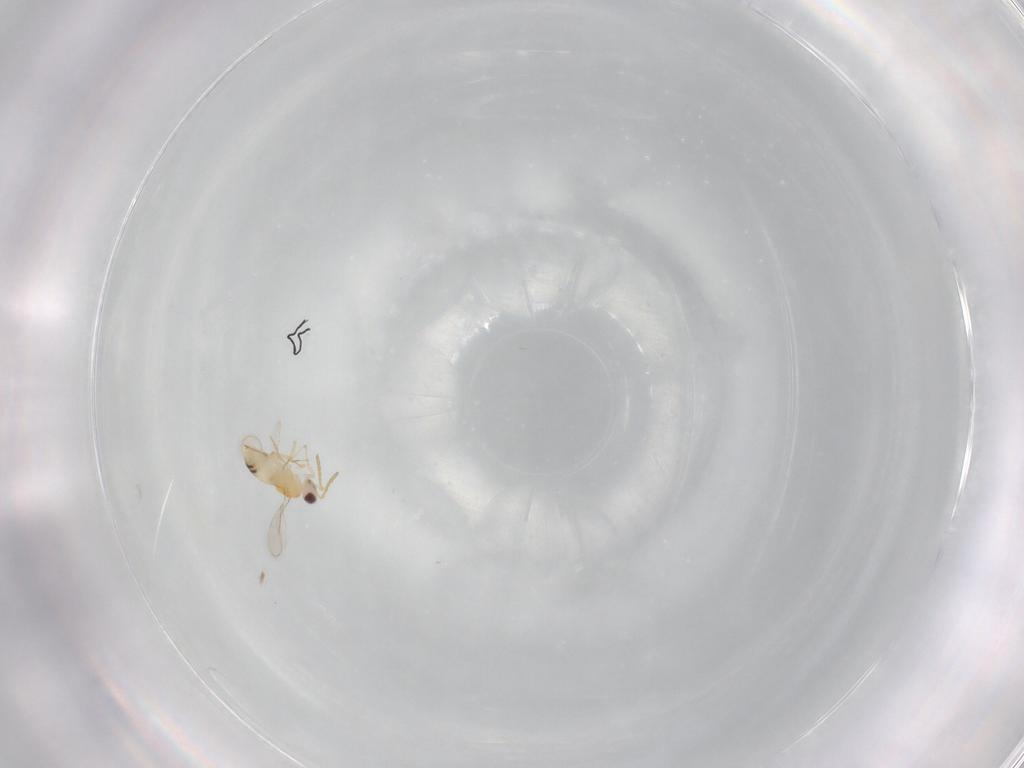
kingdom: Animalia
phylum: Arthropoda
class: Insecta
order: Hymenoptera
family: Aphelinidae
